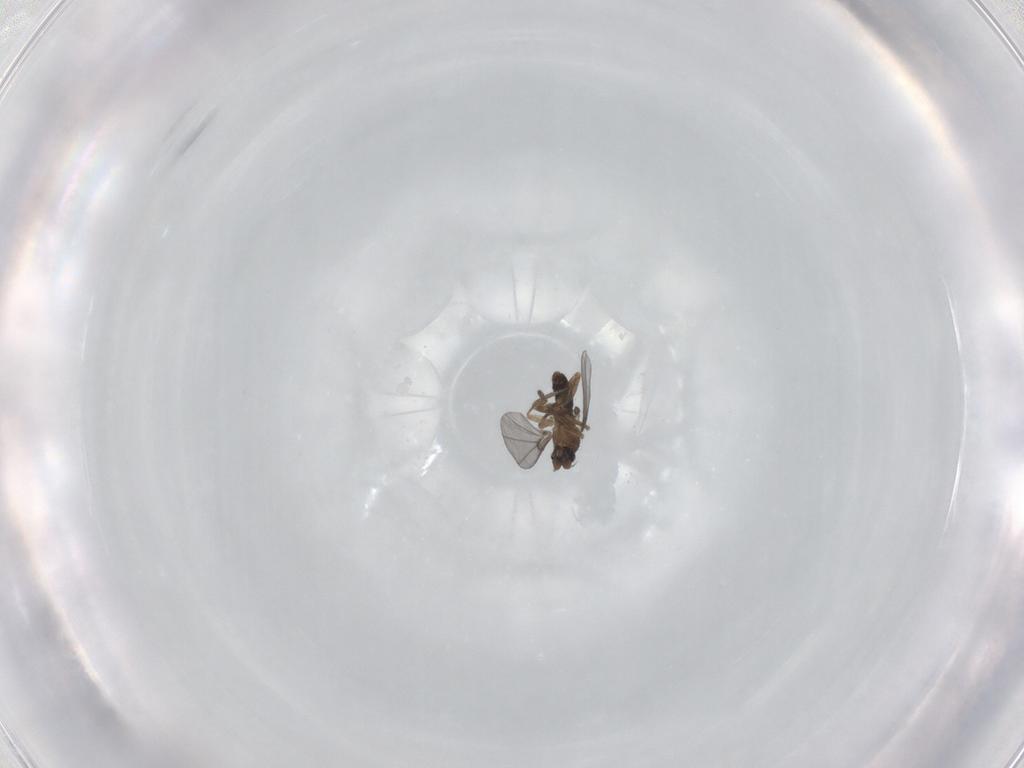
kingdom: Animalia
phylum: Arthropoda
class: Insecta
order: Diptera
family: Phoridae
